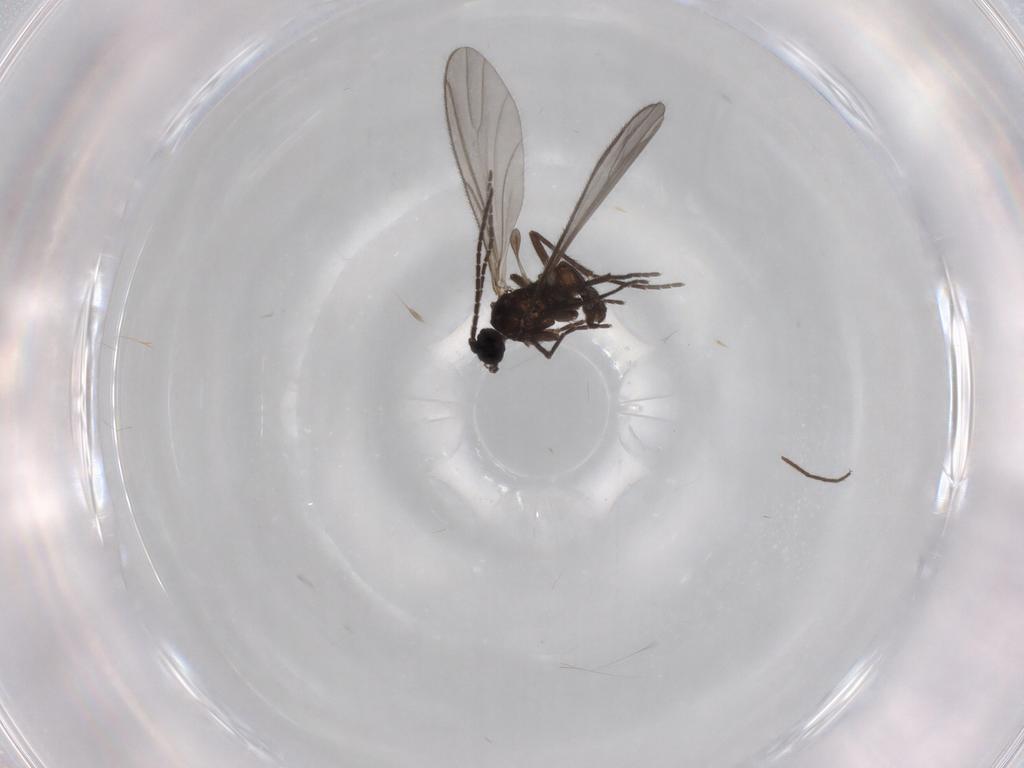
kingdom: Animalia
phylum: Arthropoda
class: Insecta
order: Diptera
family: Sciaridae
